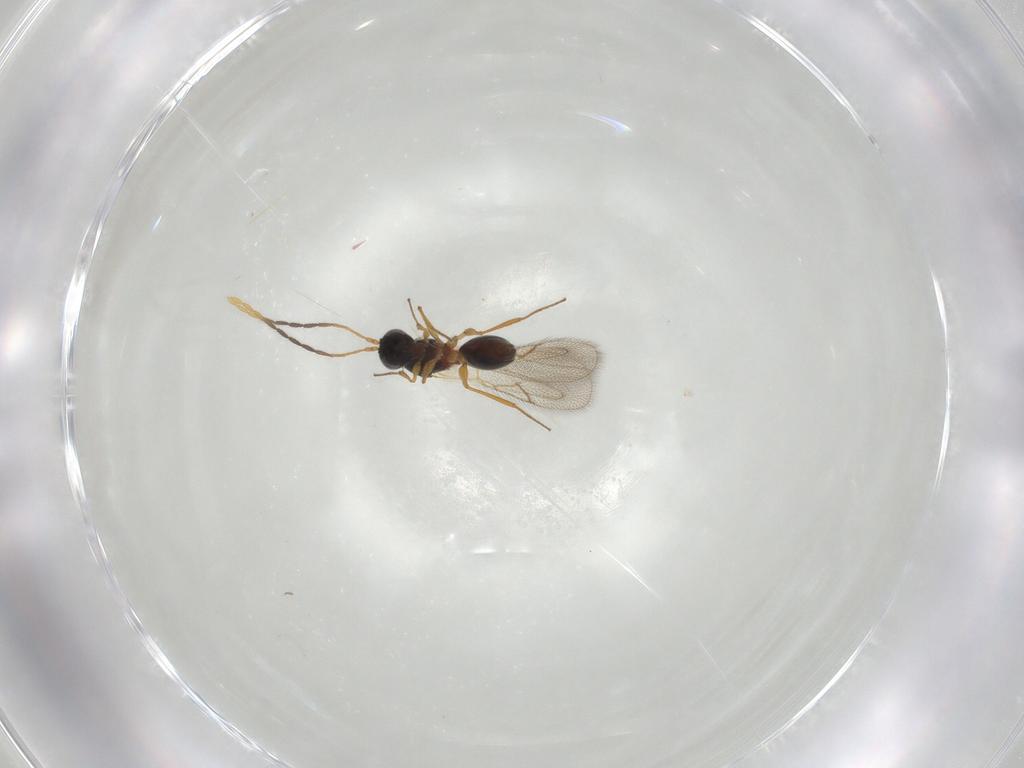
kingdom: Animalia
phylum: Arthropoda
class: Insecta
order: Hymenoptera
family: Figitidae
